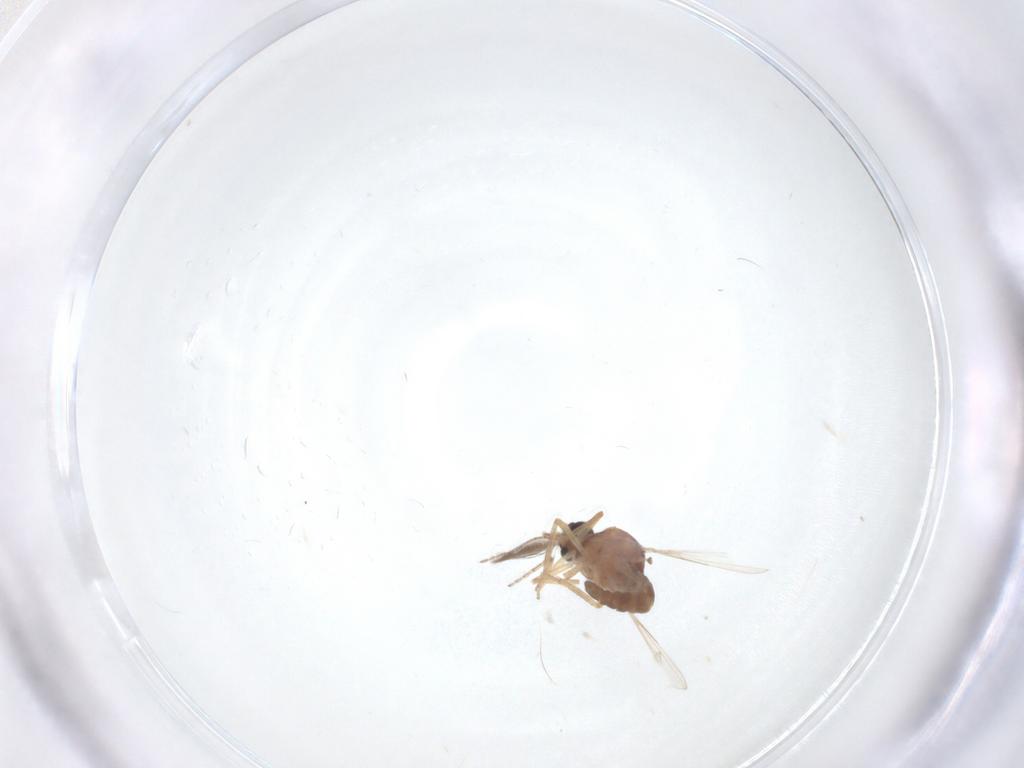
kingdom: Animalia
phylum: Arthropoda
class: Insecta
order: Diptera
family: Ceratopogonidae
